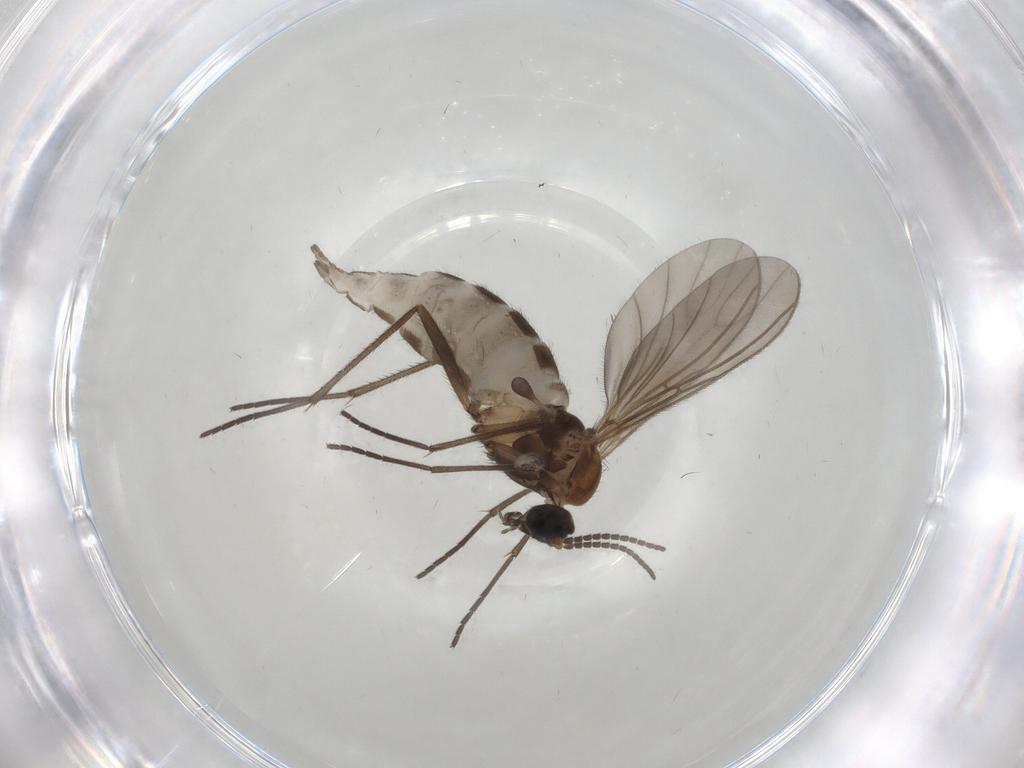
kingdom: Animalia
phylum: Arthropoda
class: Insecta
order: Diptera
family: Sciaridae
